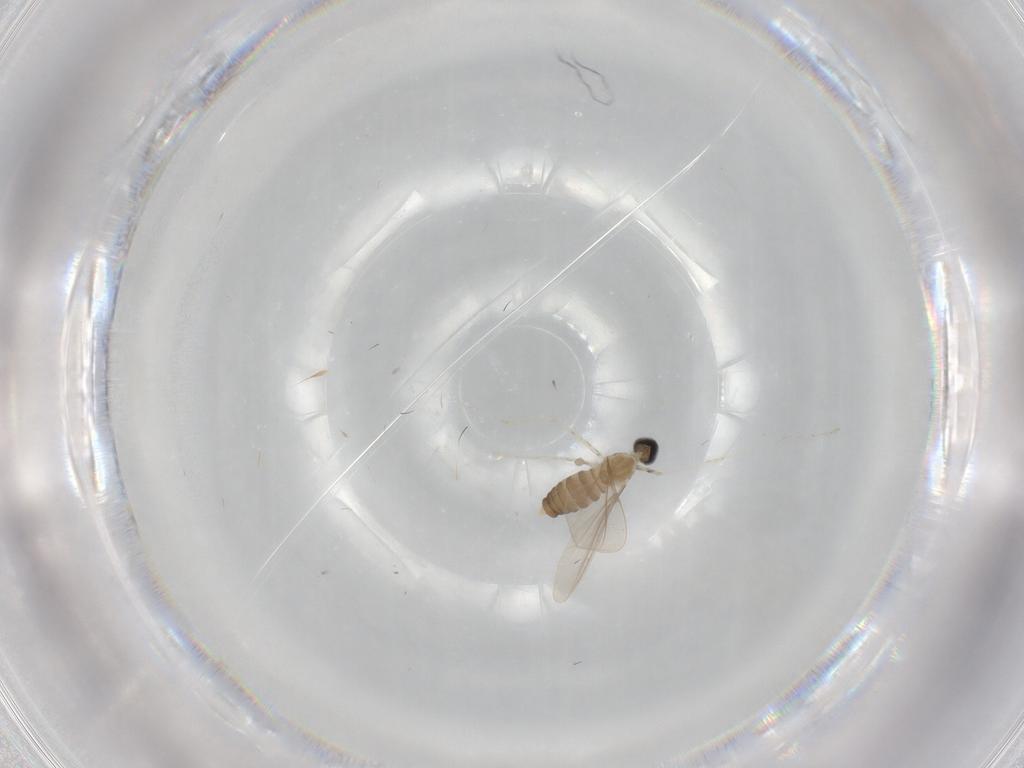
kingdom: Animalia
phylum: Arthropoda
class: Insecta
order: Diptera
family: Cecidomyiidae
